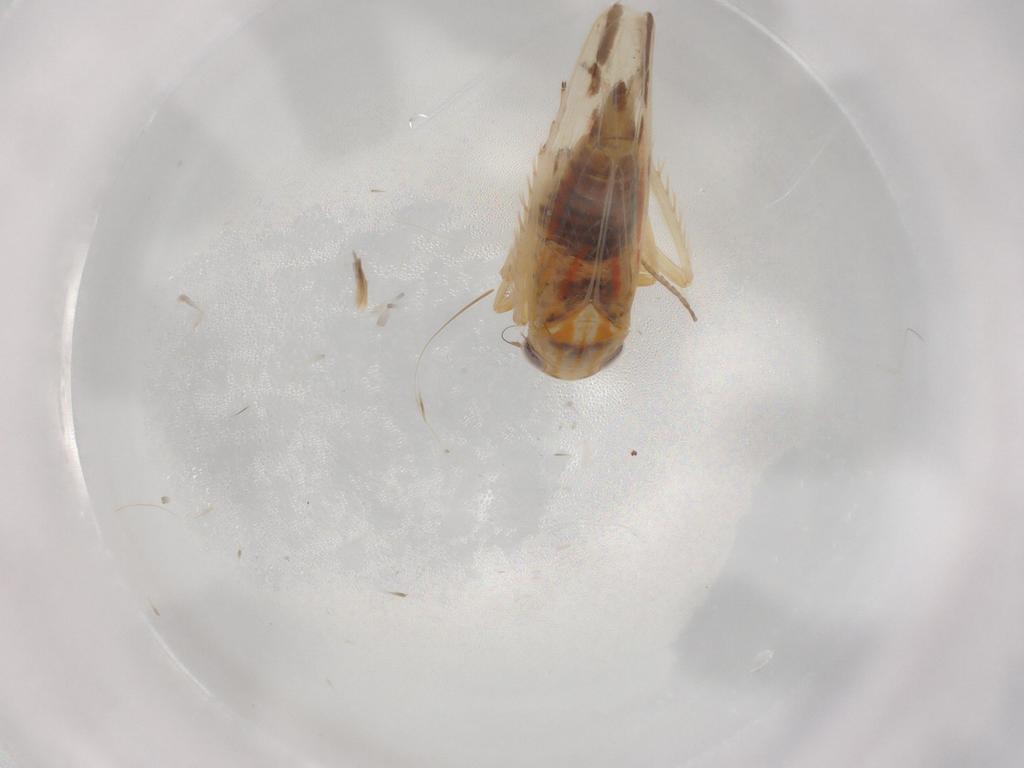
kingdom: Animalia
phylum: Arthropoda
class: Insecta
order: Hemiptera
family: Cicadellidae
